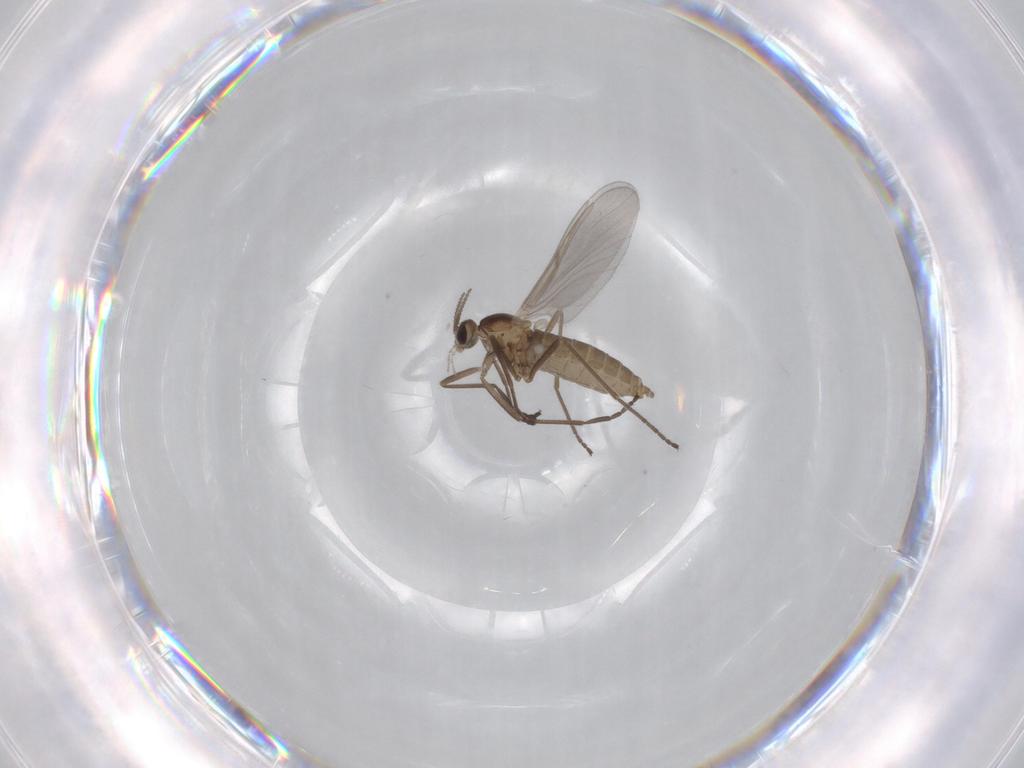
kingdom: Animalia
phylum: Arthropoda
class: Insecta
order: Diptera
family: Cecidomyiidae
